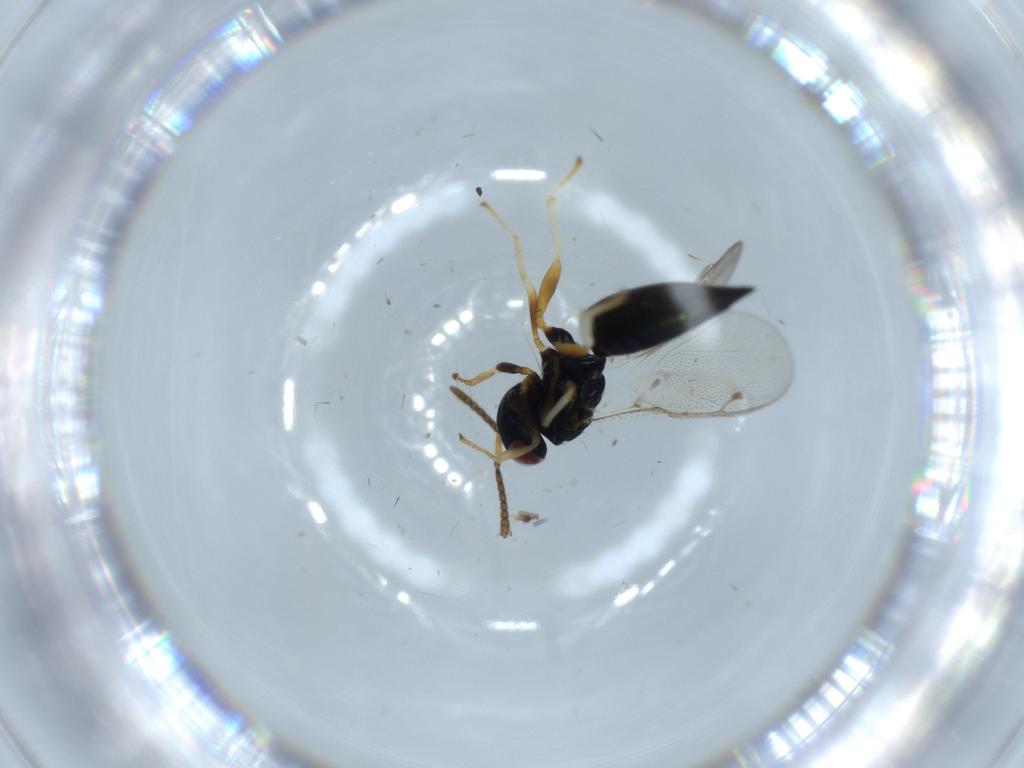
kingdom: Animalia
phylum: Arthropoda
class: Insecta
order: Hymenoptera
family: Pteromalidae
